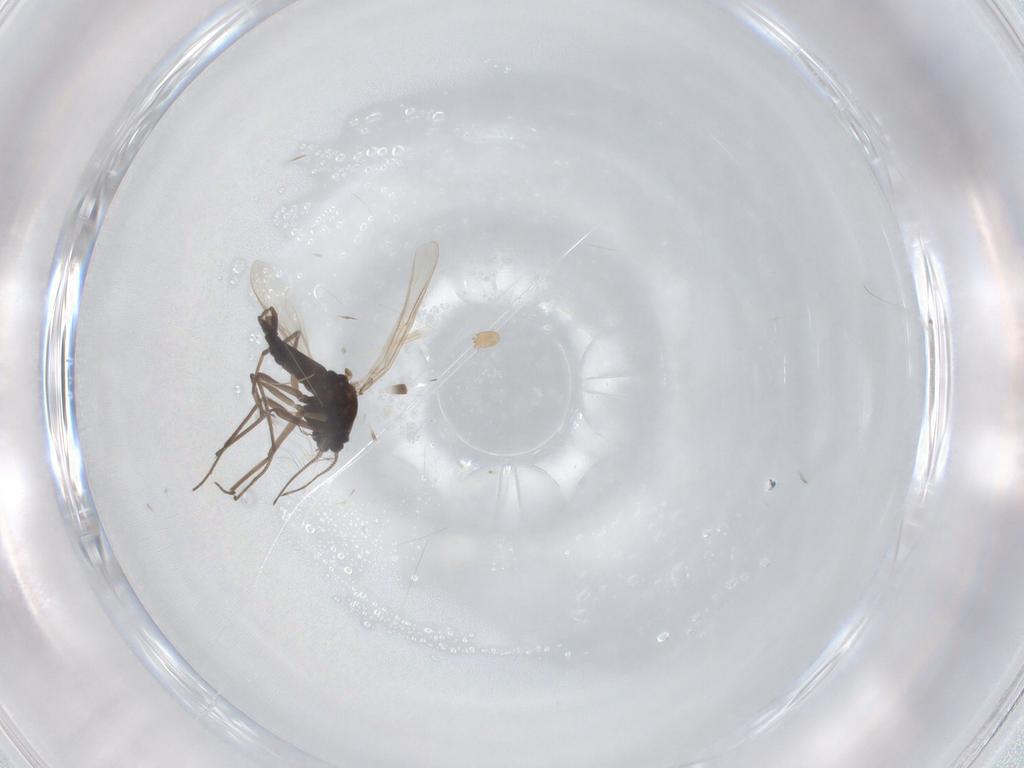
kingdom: Animalia
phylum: Arthropoda
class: Insecta
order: Diptera
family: Chironomidae
